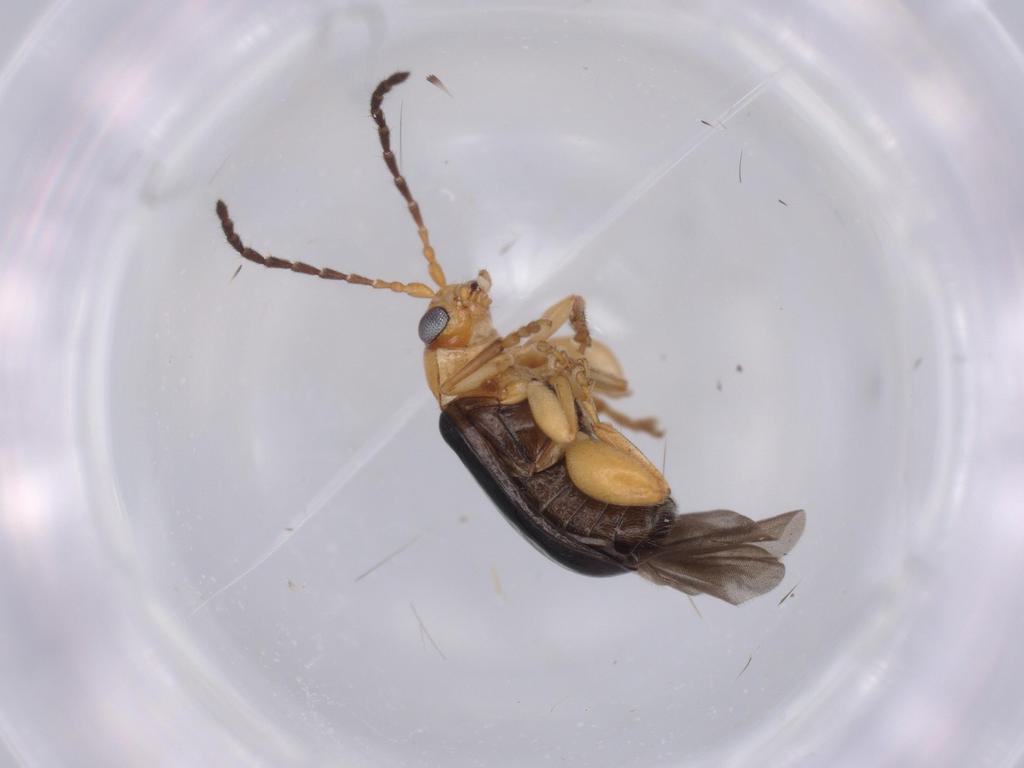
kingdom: Animalia
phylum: Arthropoda
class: Insecta
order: Coleoptera
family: Chrysomelidae
